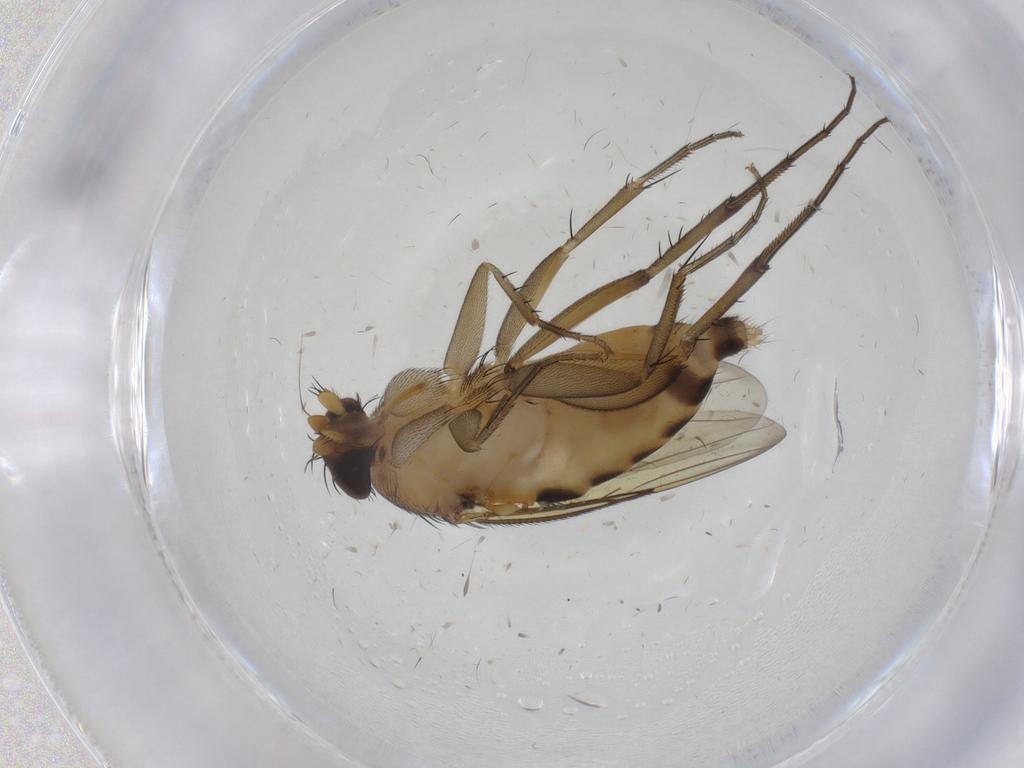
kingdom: Animalia
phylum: Arthropoda
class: Insecta
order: Diptera
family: Phoridae
